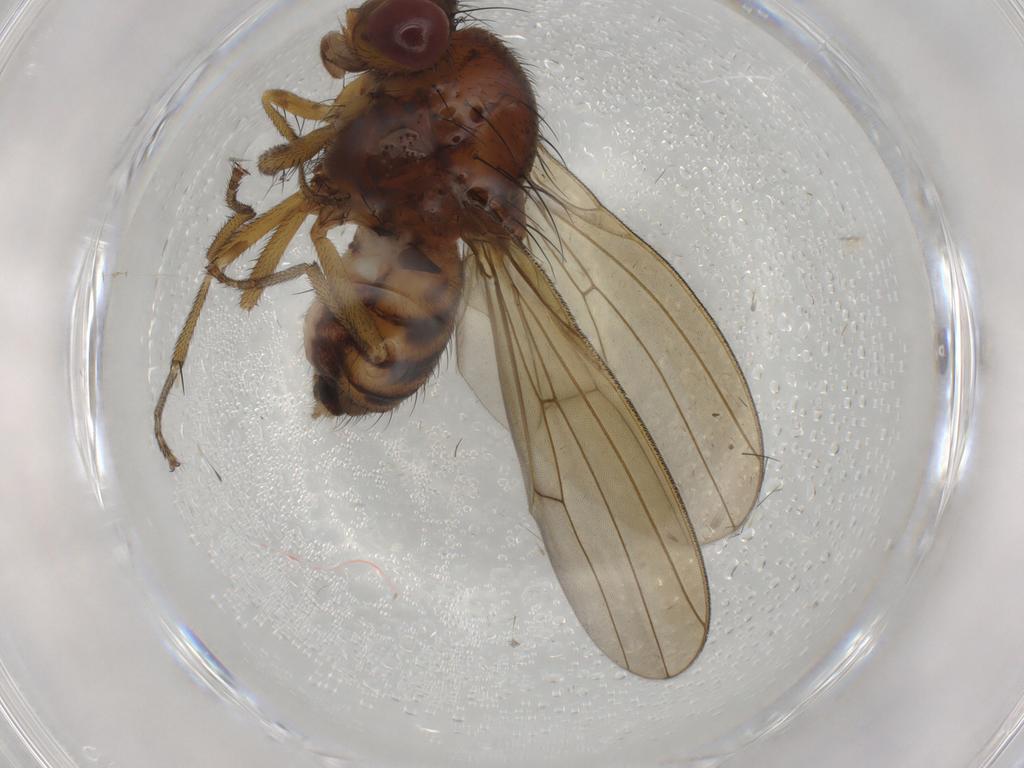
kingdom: Animalia
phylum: Arthropoda
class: Insecta
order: Diptera
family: Lauxaniidae
